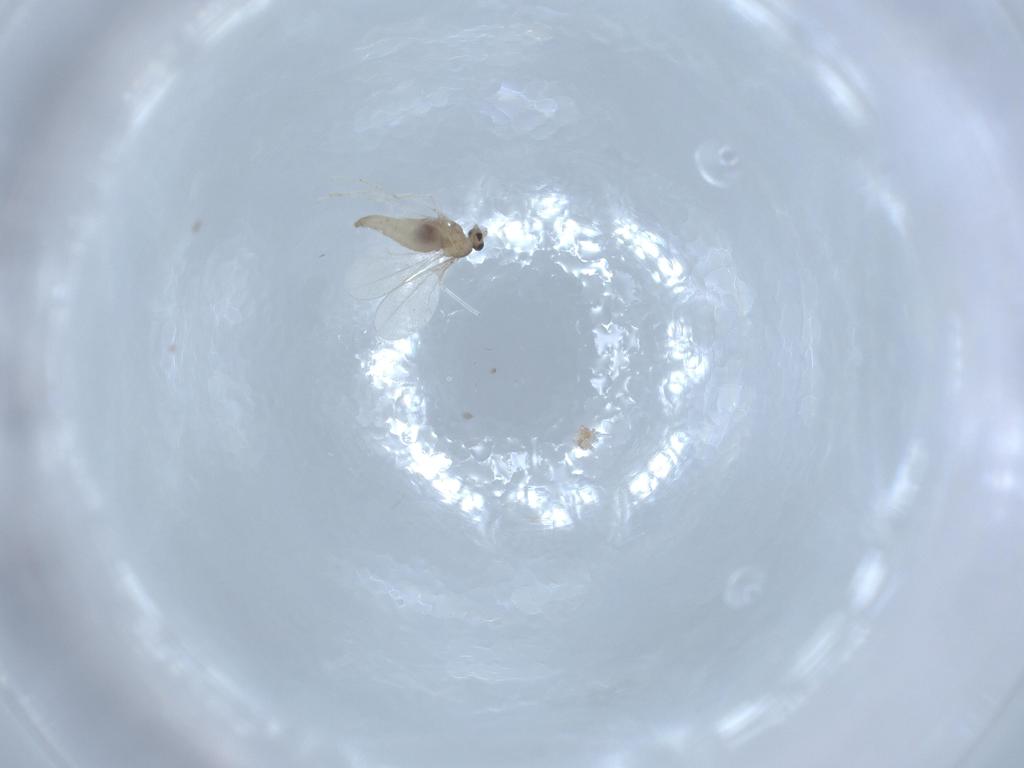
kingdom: Animalia
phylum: Arthropoda
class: Insecta
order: Diptera
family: Cecidomyiidae
